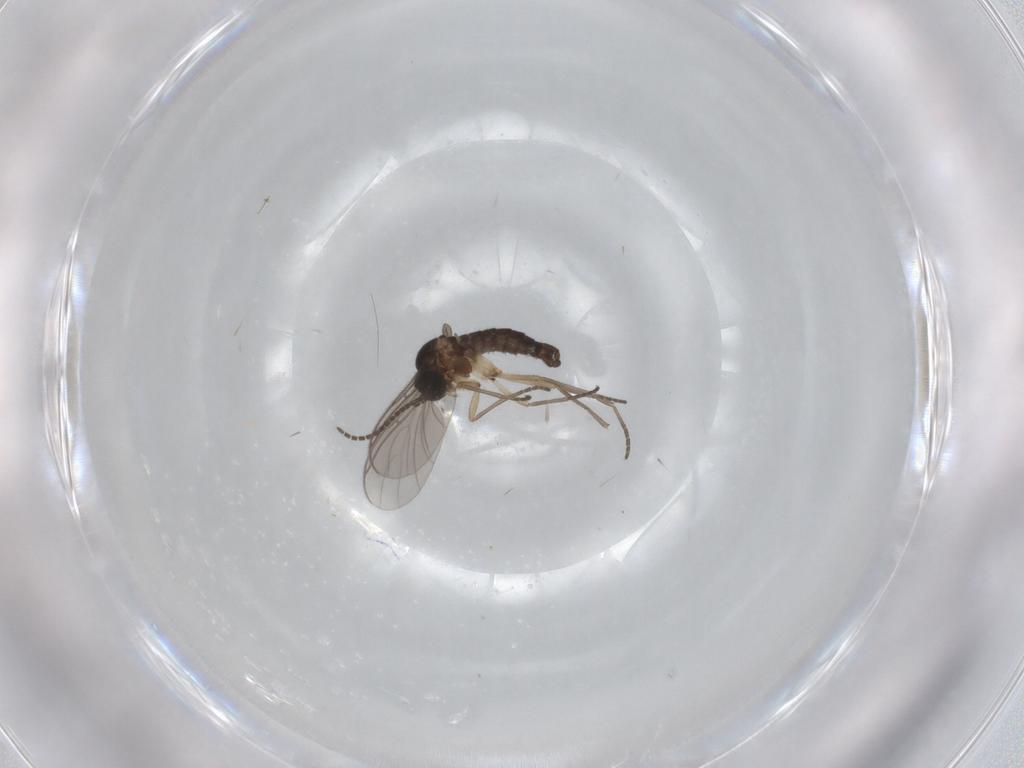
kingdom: Animalia
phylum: Arthropoda
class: Insecta
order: Diptera
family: Sciaridae
